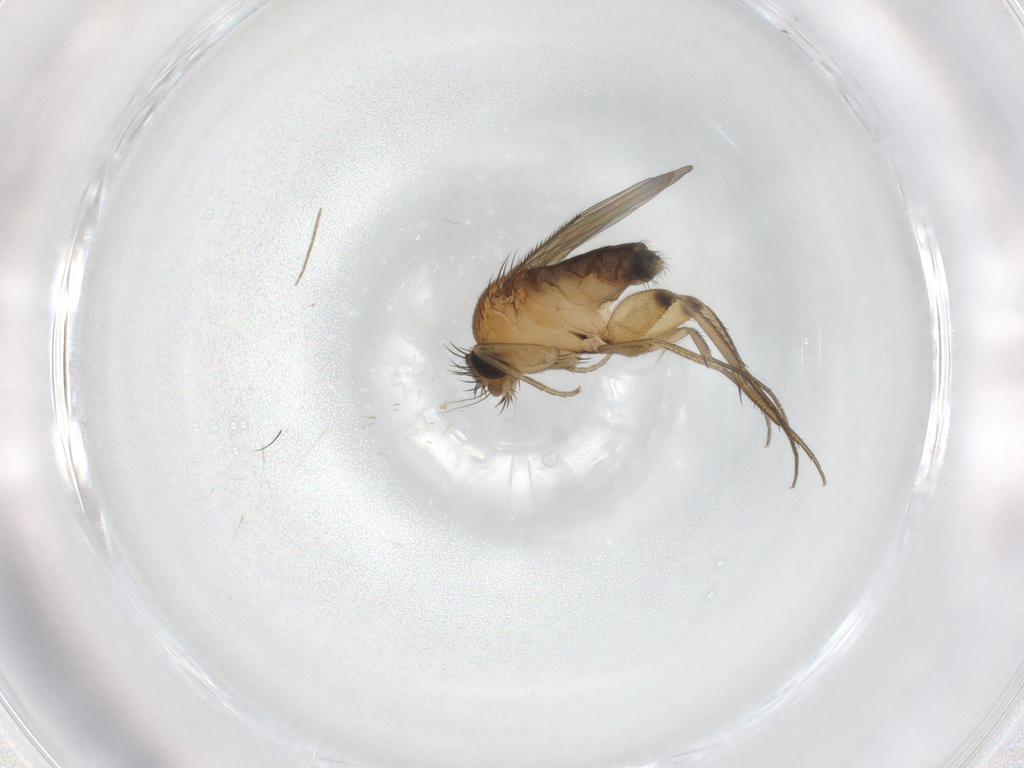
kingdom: Animalia
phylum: Arthropoda
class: Insecta
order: Diptera
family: Phoridae
